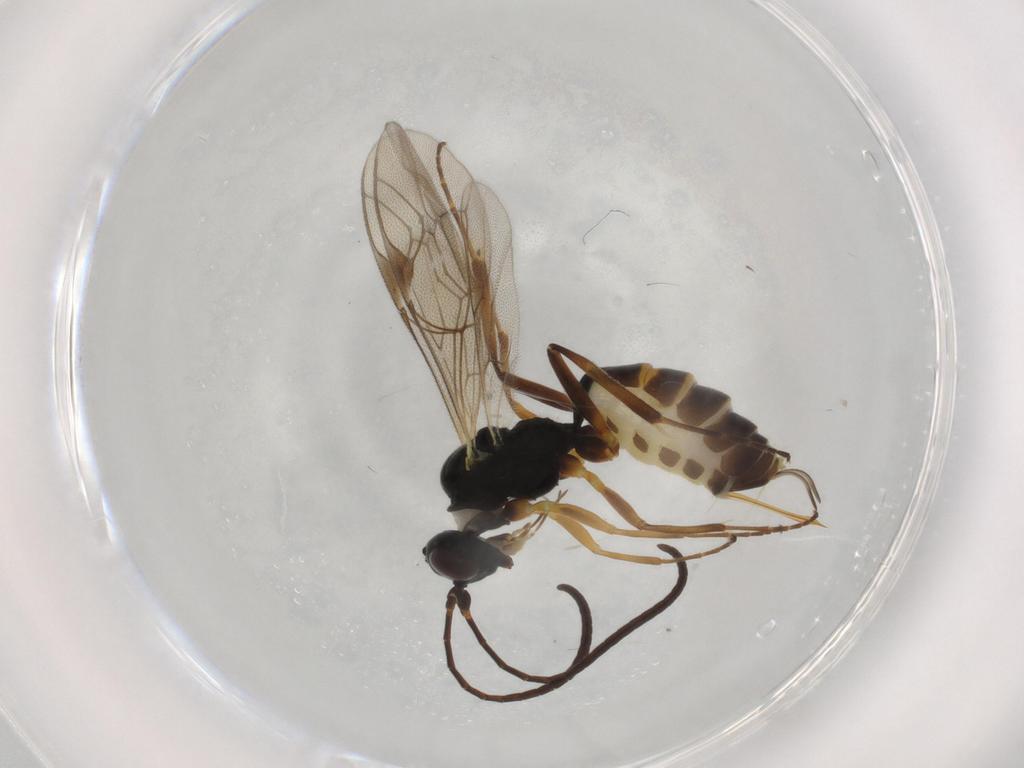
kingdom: Animalia
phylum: Arthropoda
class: Insecta
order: Hymenoptera
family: Ichneumonidae
